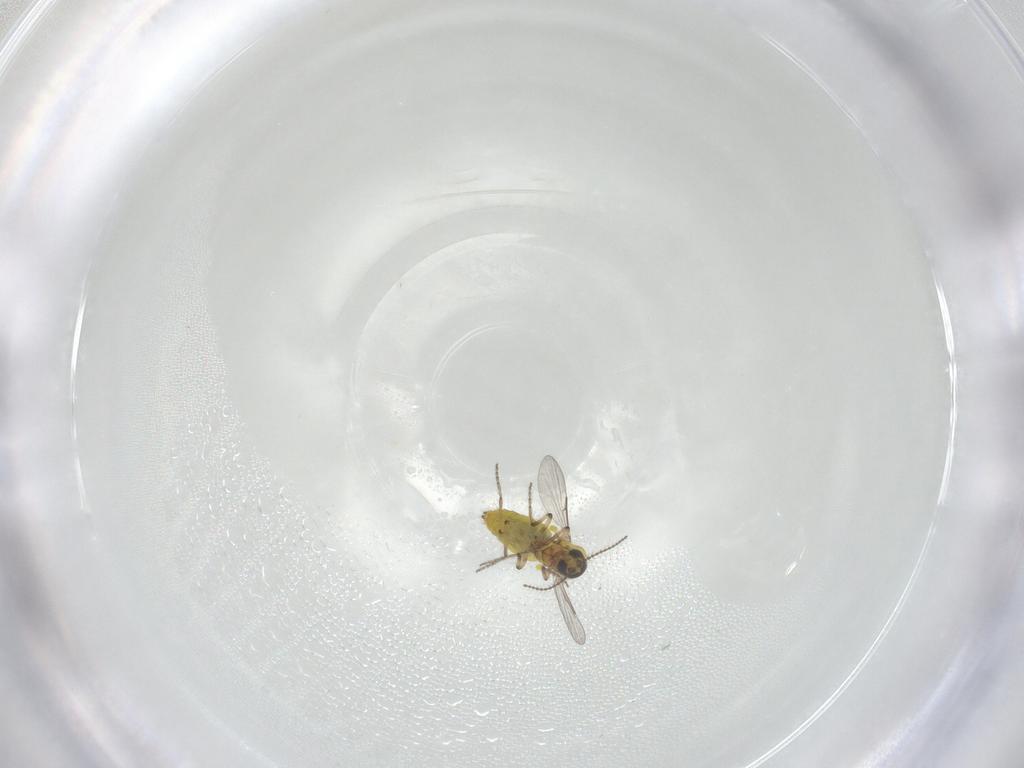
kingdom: Animalia
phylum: Arthropoda
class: Insecta
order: Diptera
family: Ceratopogonidae
